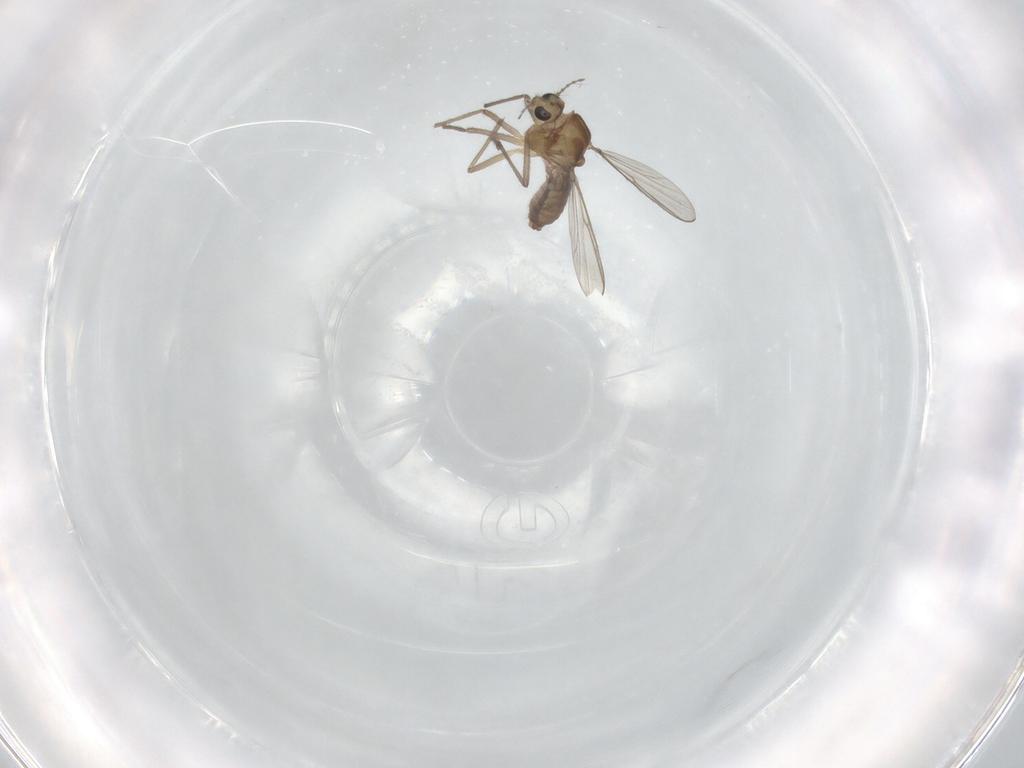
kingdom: Animalia
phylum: Arthropoda
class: Insecta
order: Diptera
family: Chironomidae
